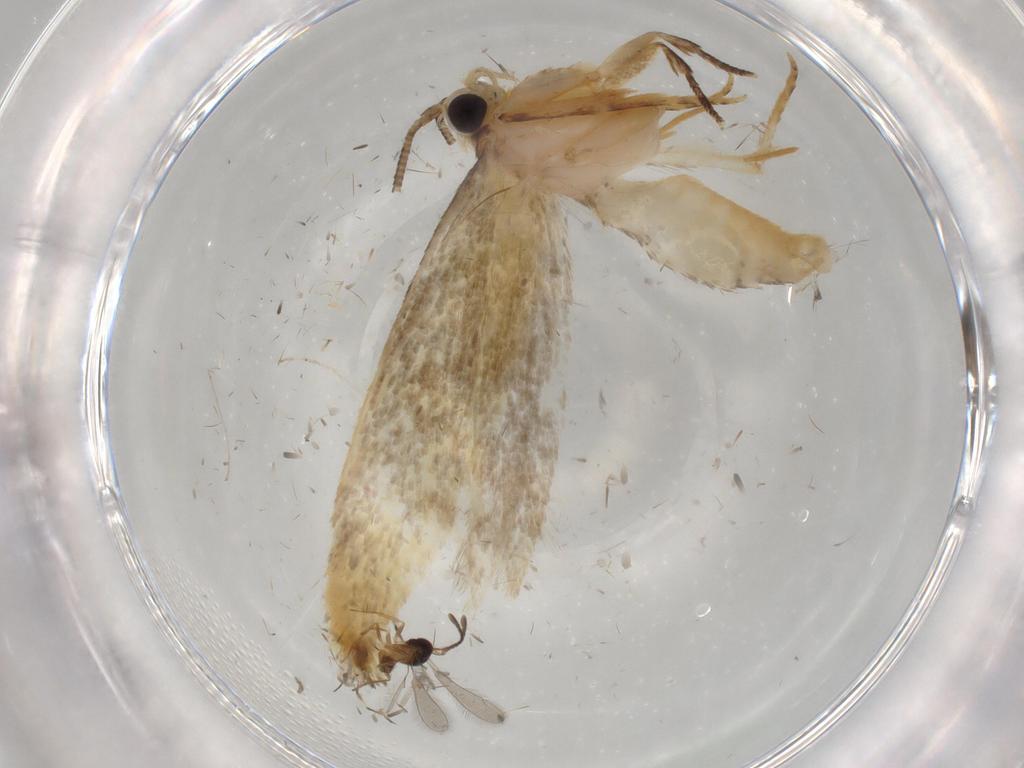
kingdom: Animalia
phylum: Arthropoda
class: Insecta
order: Lepidoptera
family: Tineidae
